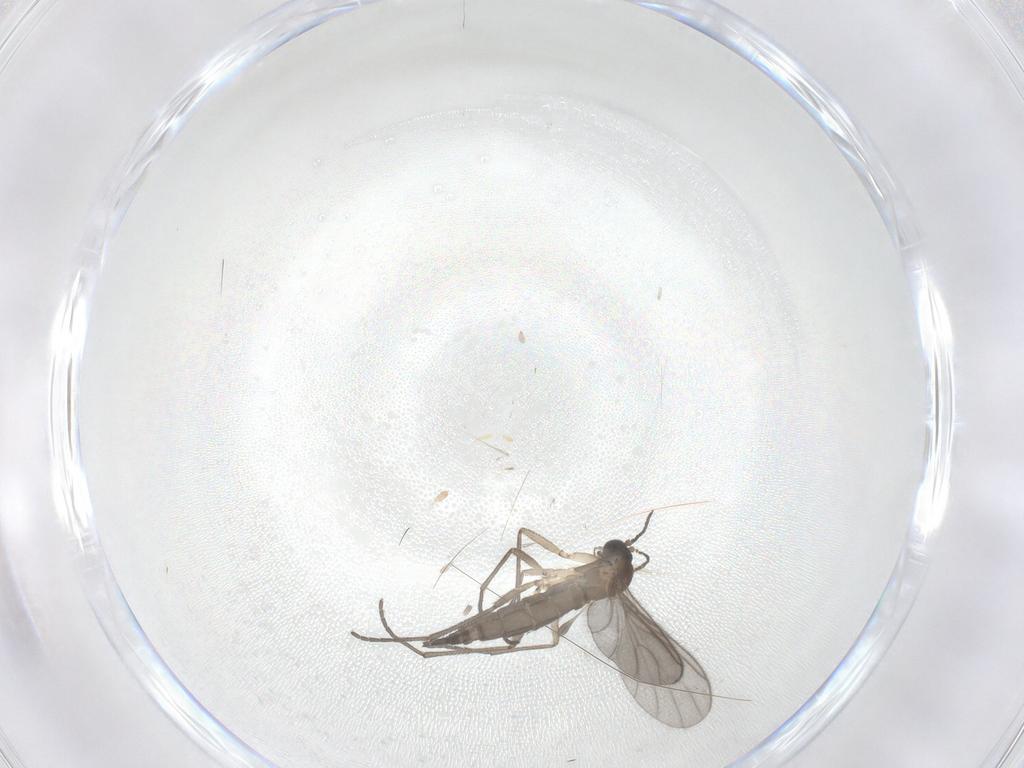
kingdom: Animalia
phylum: Arthropoda
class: Insecta
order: Diptera
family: Sciaridae
